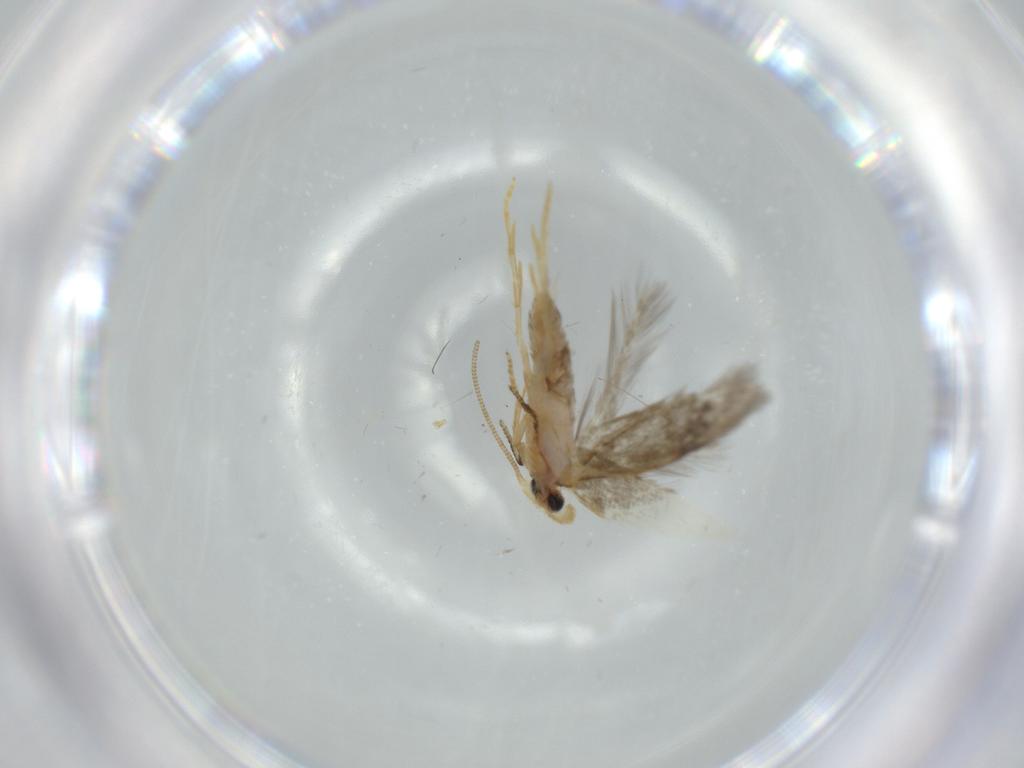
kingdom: Animalia
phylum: Arthropoda
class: Insecta
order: Lepidoptera
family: Nepticulidae
